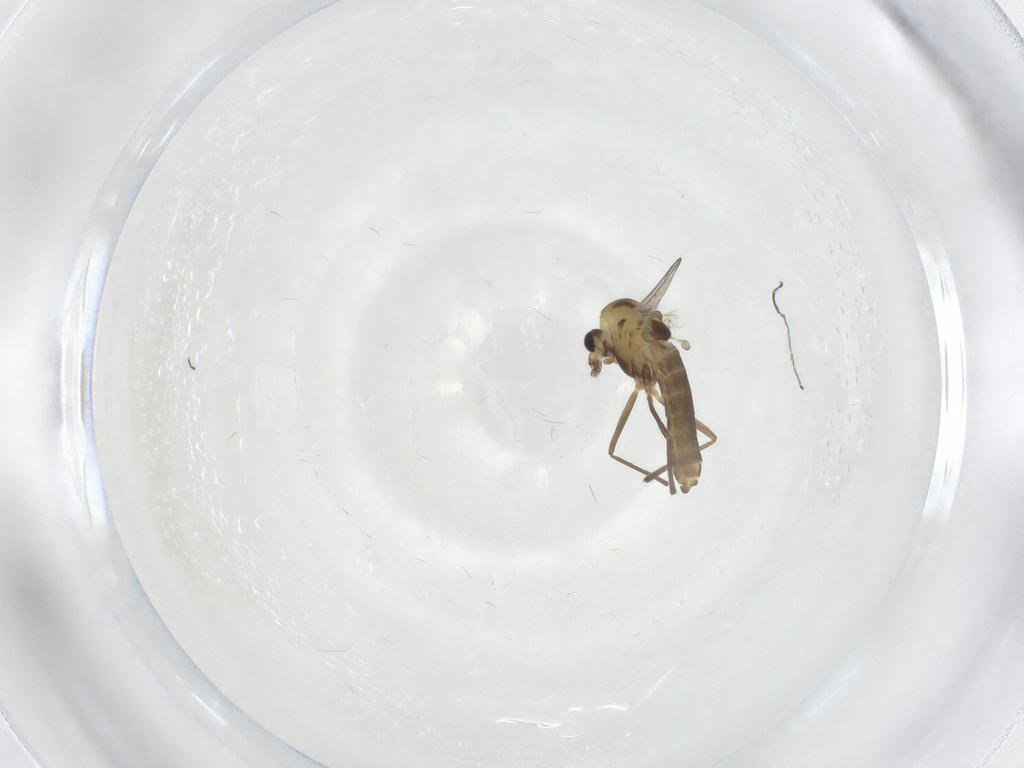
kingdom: Animalia
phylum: Arthropoda
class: Insecta
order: Diptera
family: Chironomidae
